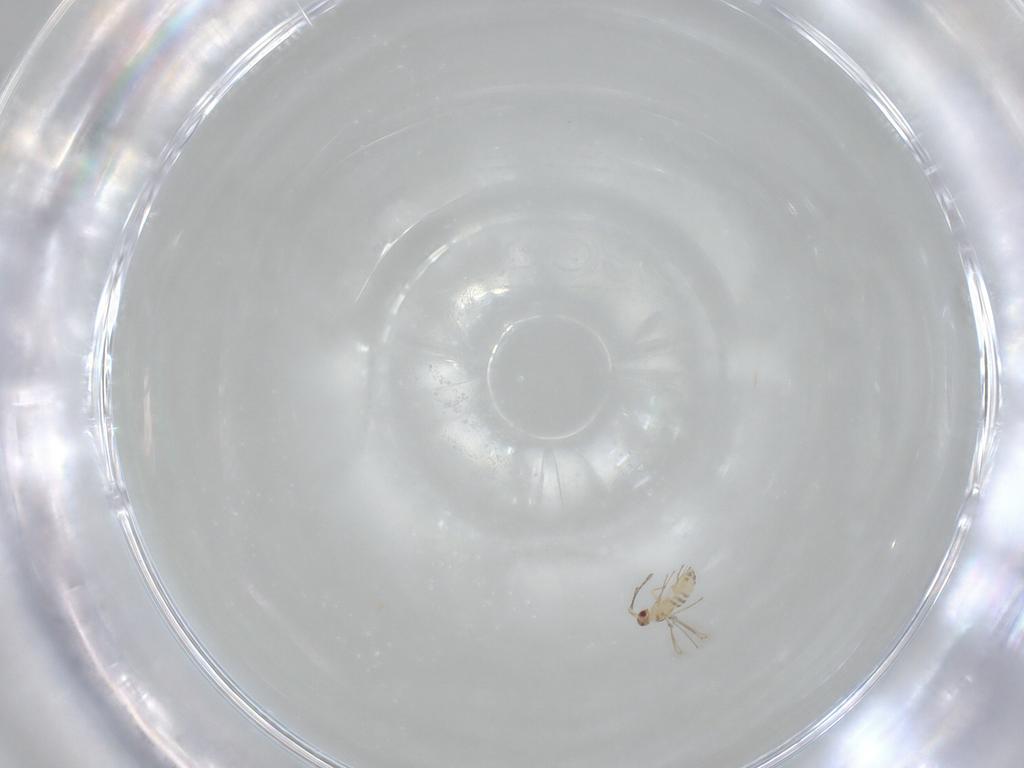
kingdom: Animalia
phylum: Arthropoda
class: Insecta
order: Hymenoptera
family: Mymaridae
